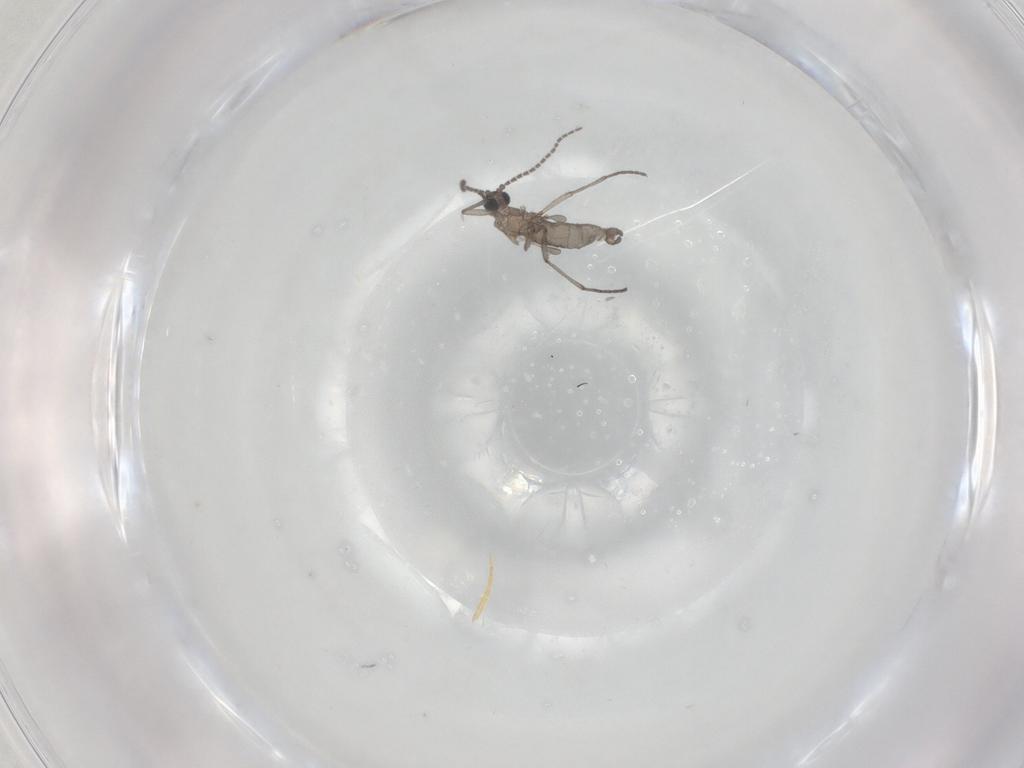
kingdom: Animalia
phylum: Arthropoda
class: Insecta
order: Diptera
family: Sciaridae
